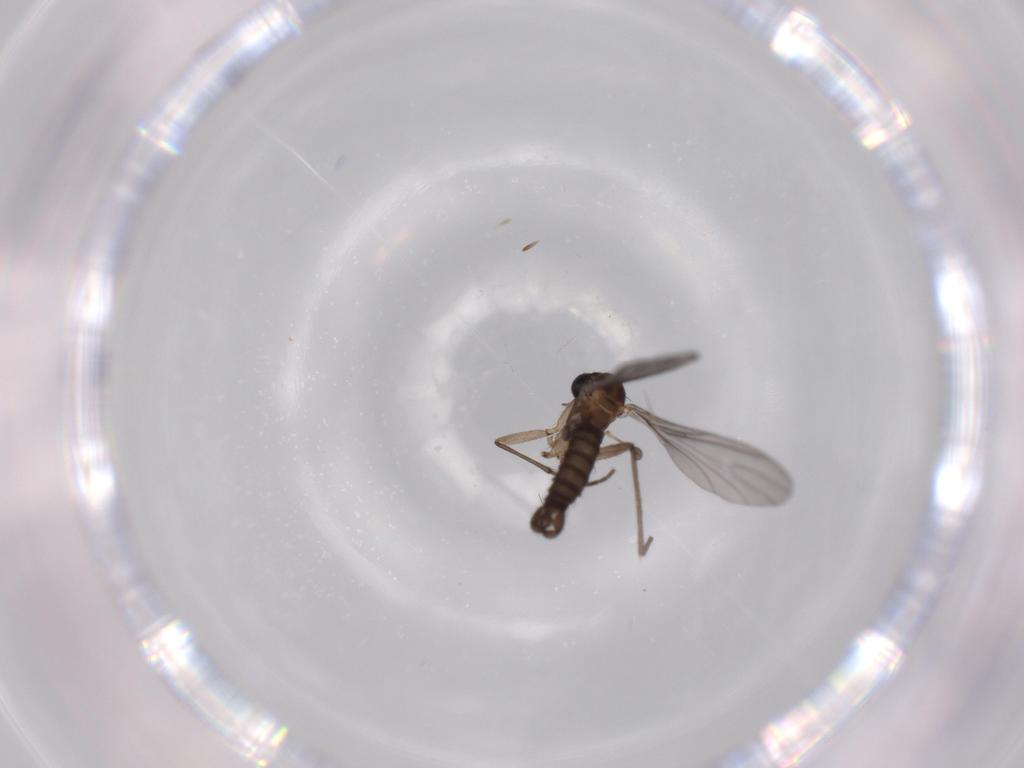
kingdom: Animalia
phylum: Arthropoda
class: Insecta
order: Diptera
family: Sciaridae
